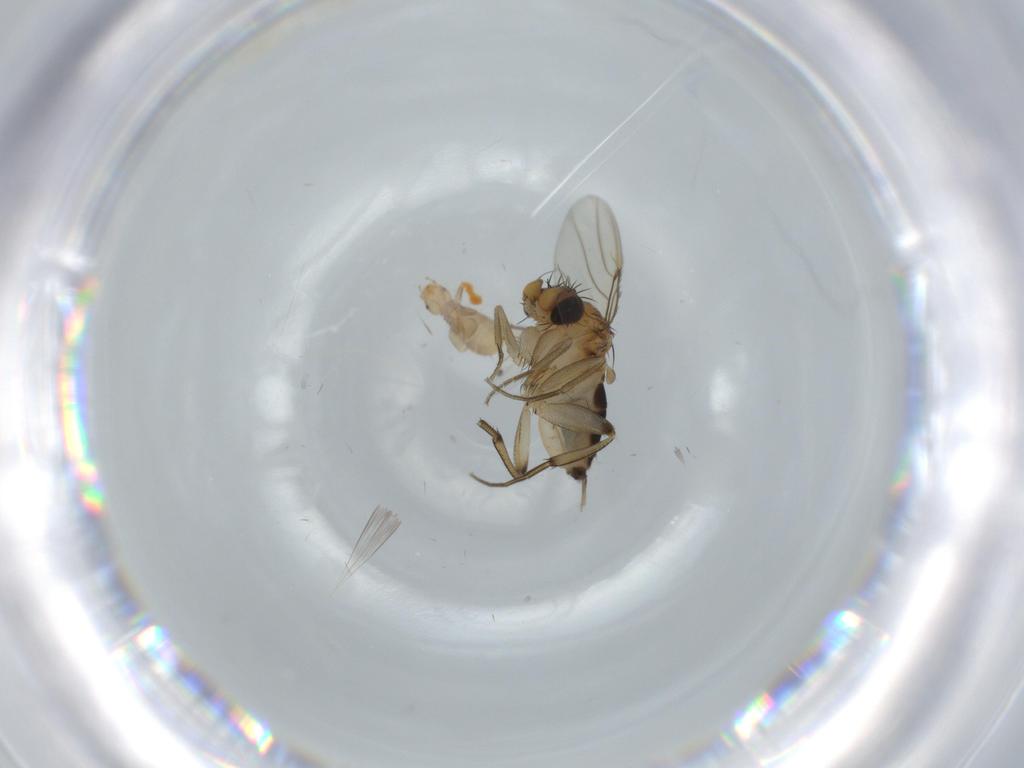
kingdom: Animalia
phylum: Arthropoda
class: Insecta
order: Psocodea
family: Liposcelididae
